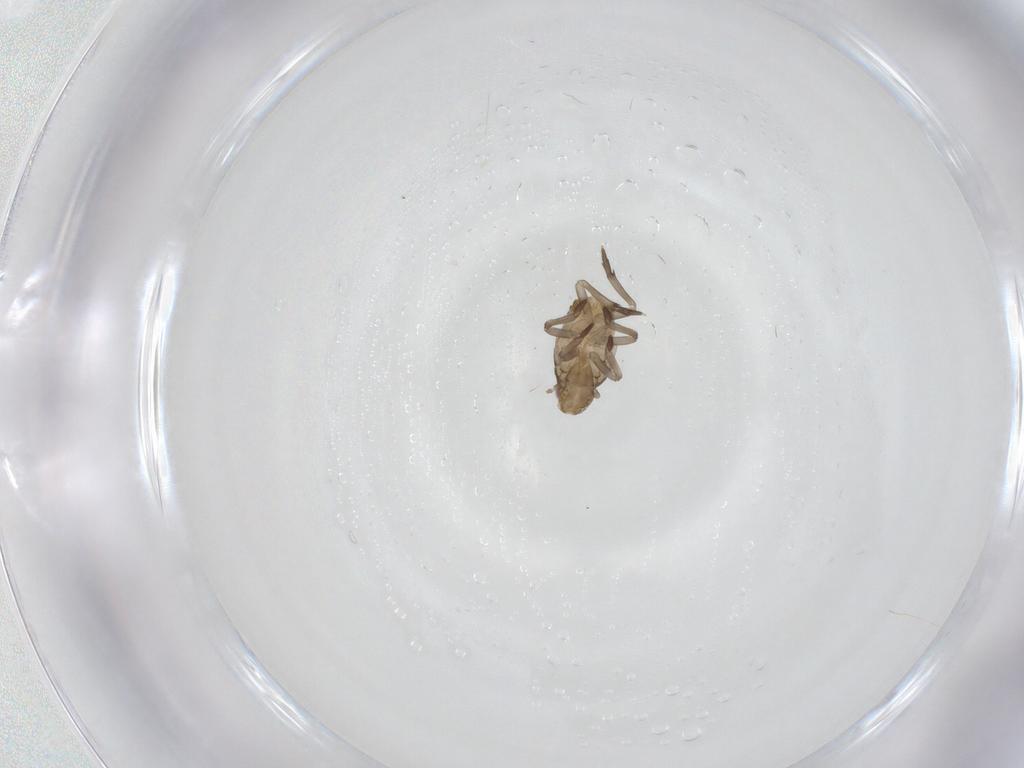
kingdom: Animalia
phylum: Arthropoda
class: Insecta
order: Hemiptera
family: Fulgoroidea_incertae_sedis
